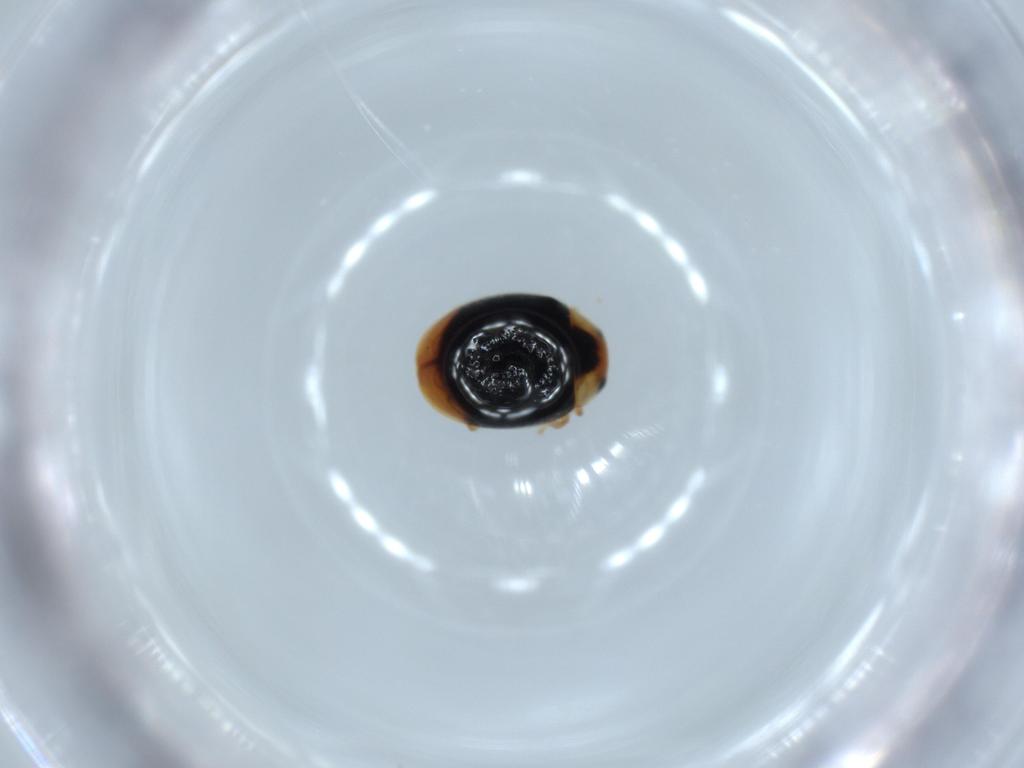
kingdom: Animalia
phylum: Arthropoda
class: Insecta
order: Coleoptera
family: Coccinellidae
